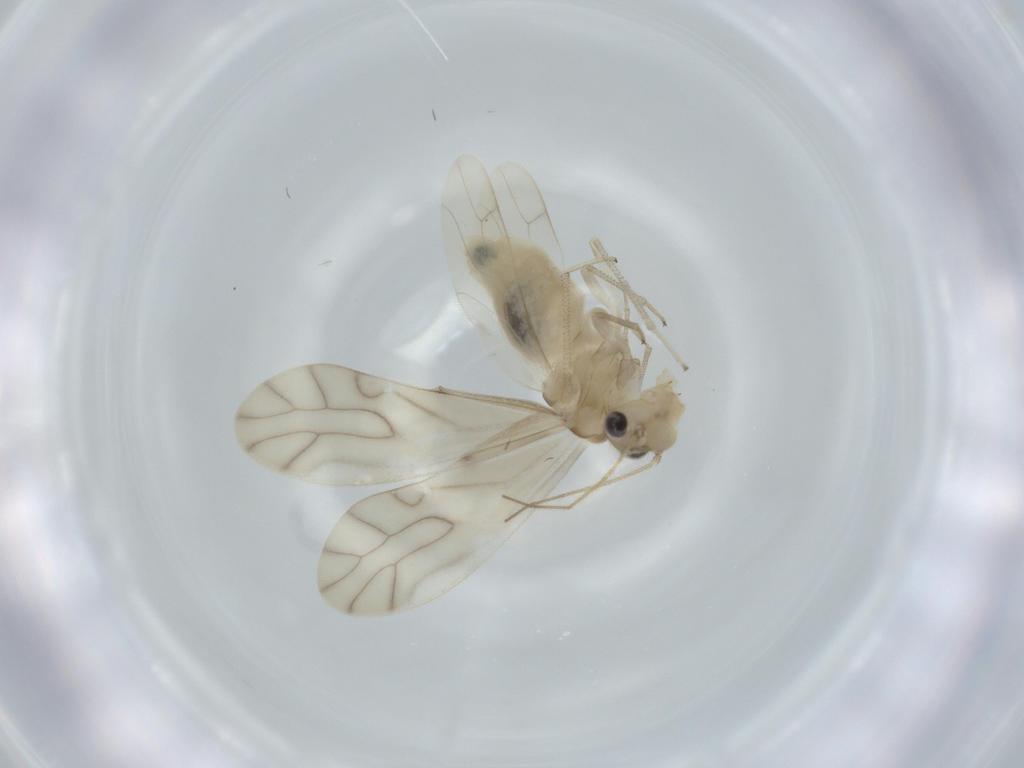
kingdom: Animalia
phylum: Arthropoda
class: Insecta
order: Psocodea
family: Caeciliusidae
